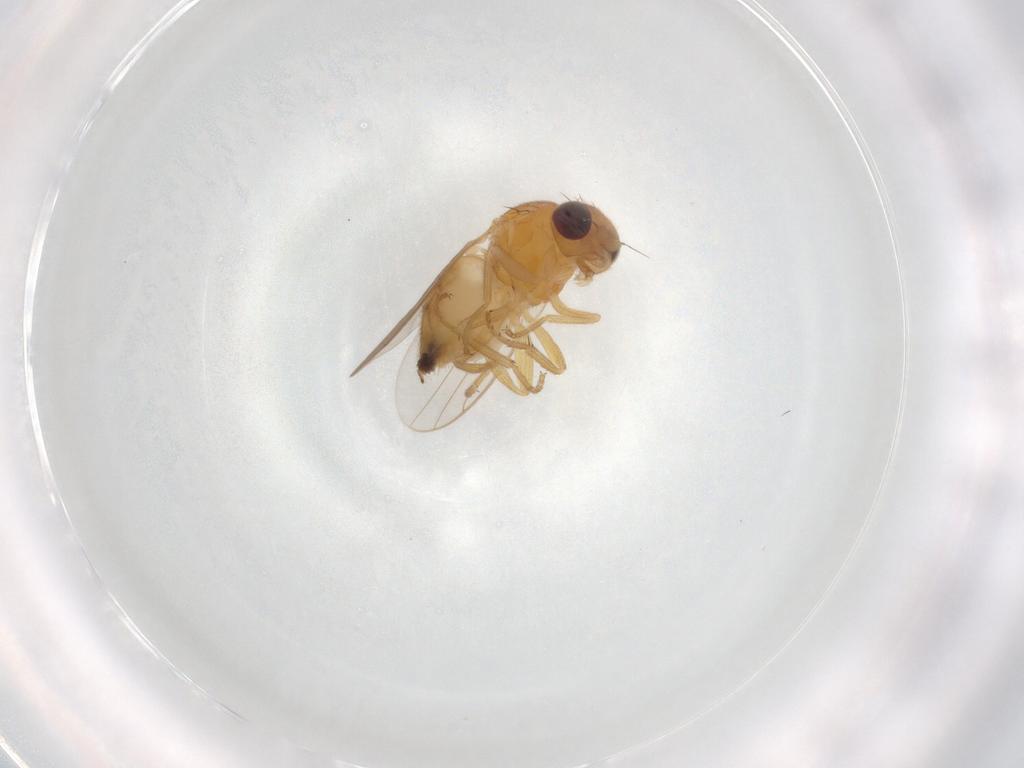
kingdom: Animalia
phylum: Arthropoda
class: Insecta
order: Diptera
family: Chloropidae
